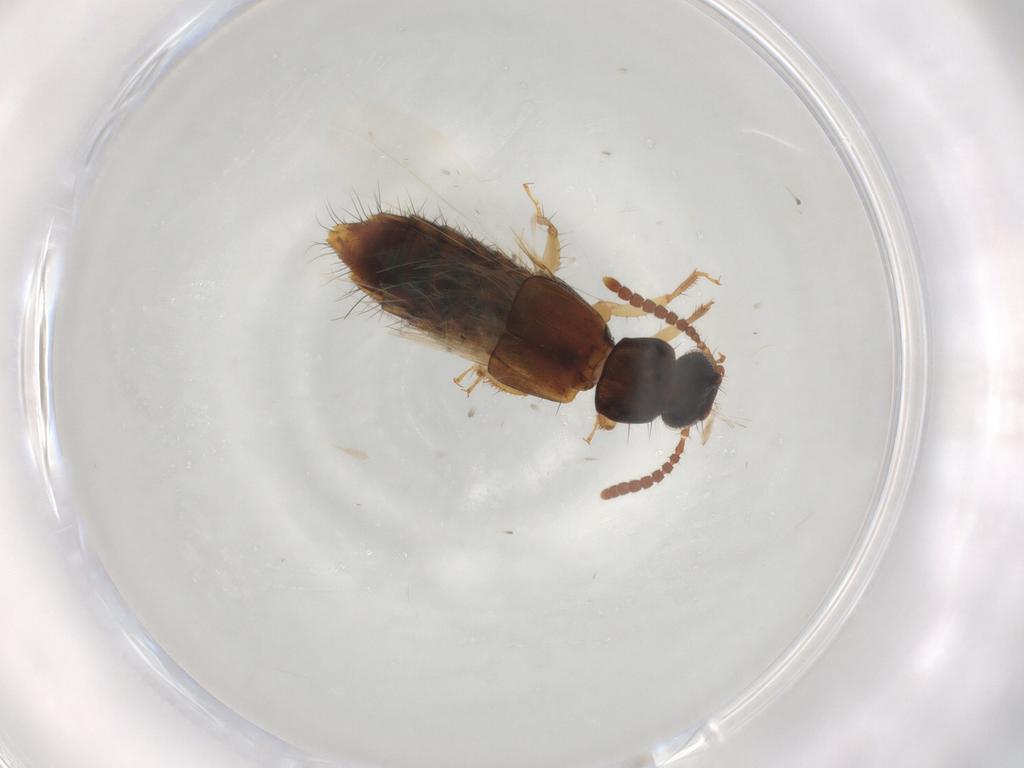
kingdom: Animalia
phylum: Arthropoda
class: Insecta
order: Coleoptera
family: Staphylinidae
